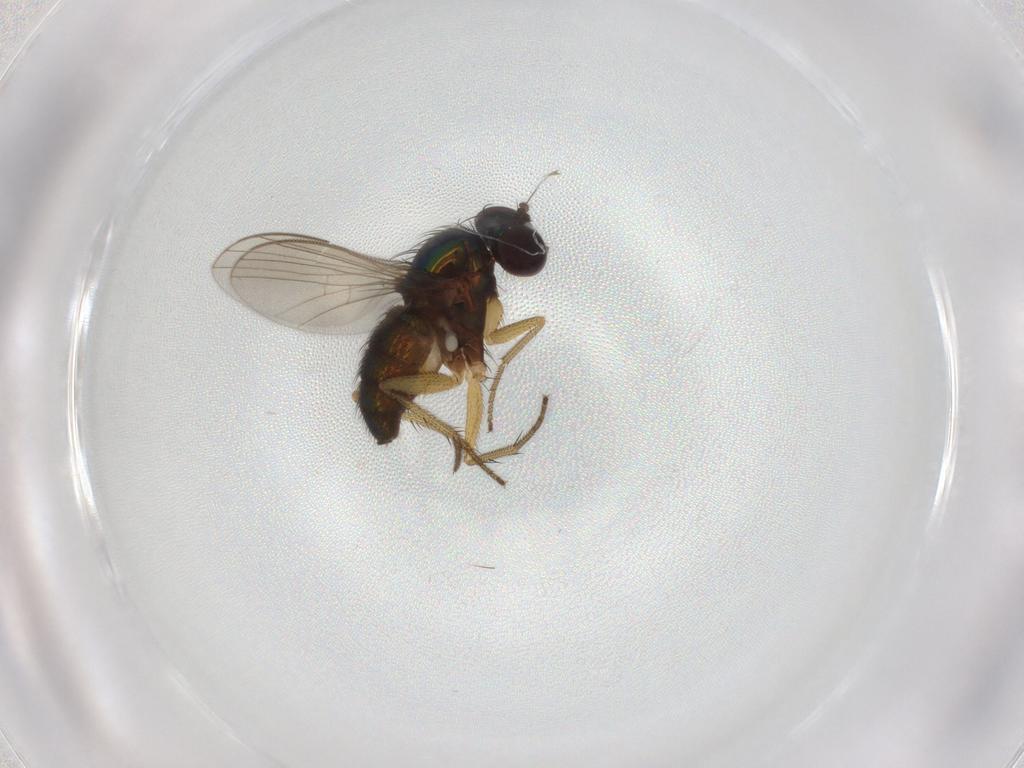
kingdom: Animalia
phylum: Arthropoda
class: Insecta
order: Diptera
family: Dolichopodidae
